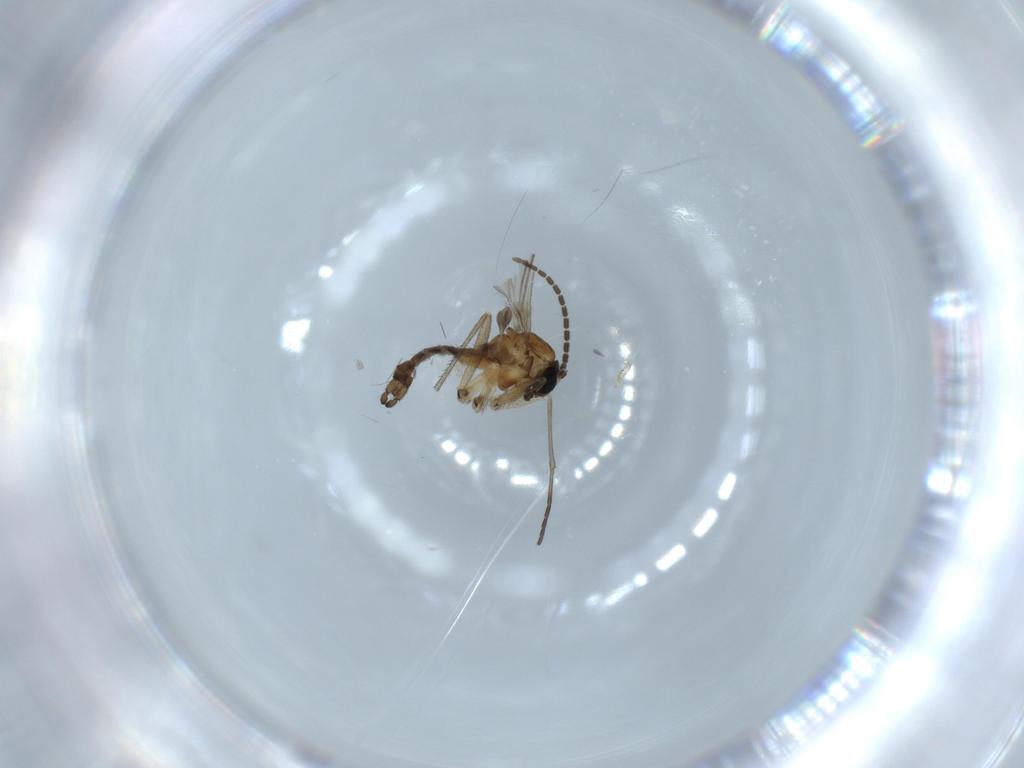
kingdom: Animalia
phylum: Arthropoda
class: Insecta
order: Diptera
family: Sciaridae
